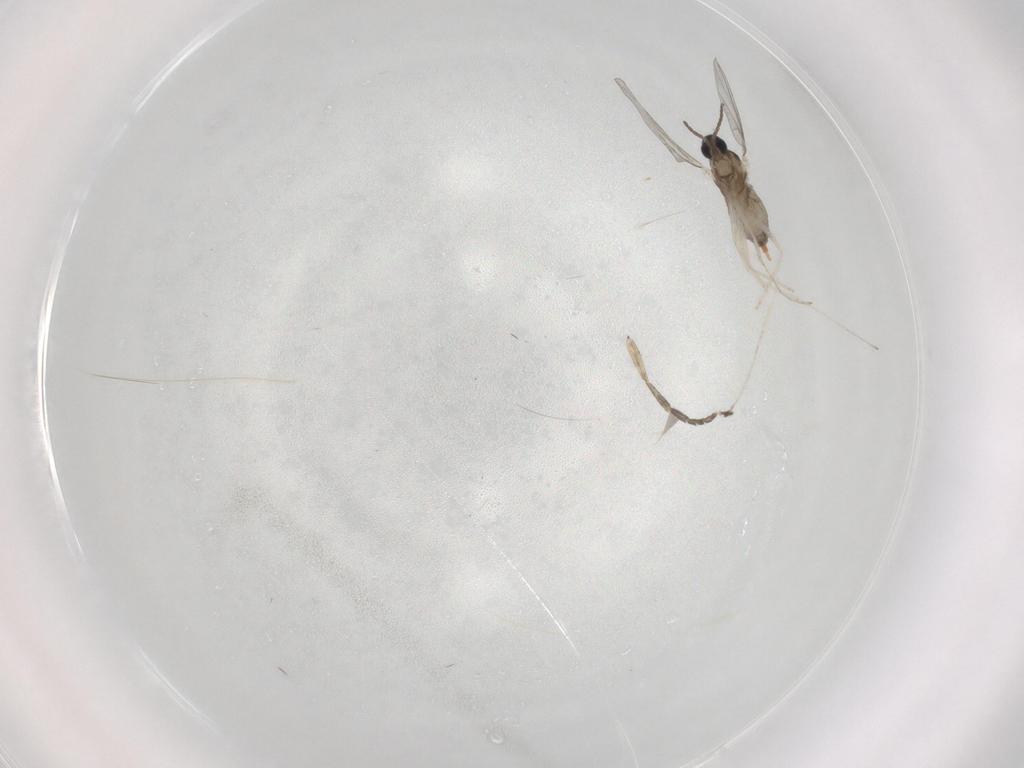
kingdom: Animalia
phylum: Arthropoda
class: Insecta
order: Diptera
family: Cecidomyiidae
